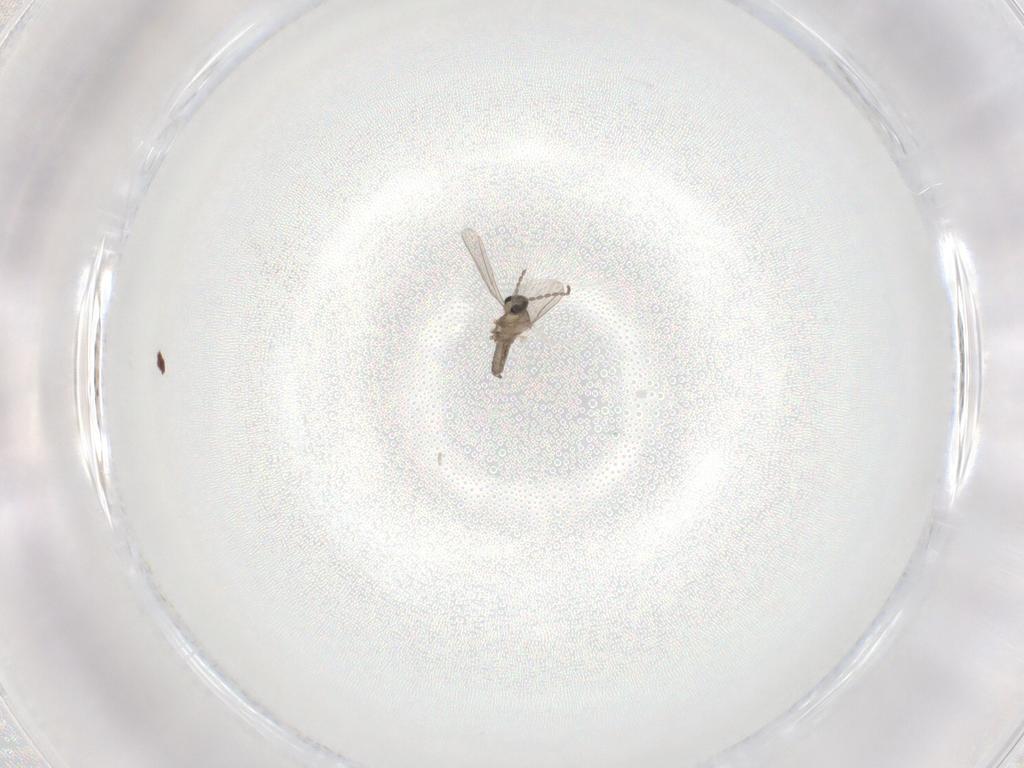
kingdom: Animalia
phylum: Arthropoda
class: Insecta
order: Diptera
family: Cecidomyiidae
